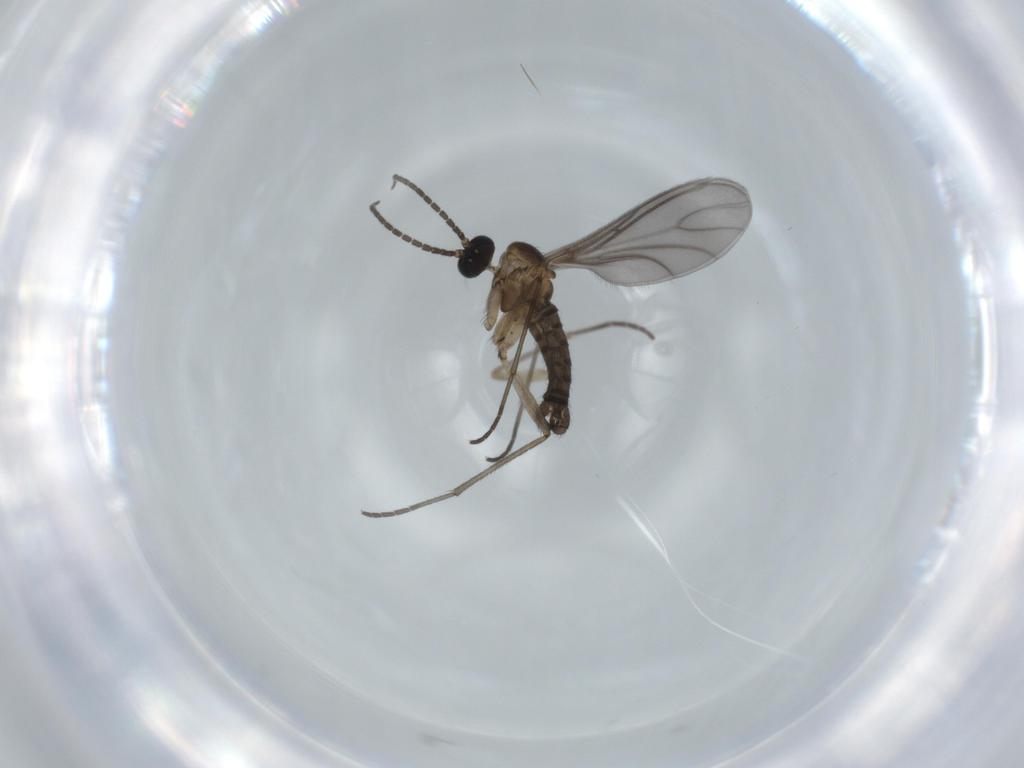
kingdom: Animalia
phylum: Arthropoda
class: Insecta
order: Diptera
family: Sciaridae
